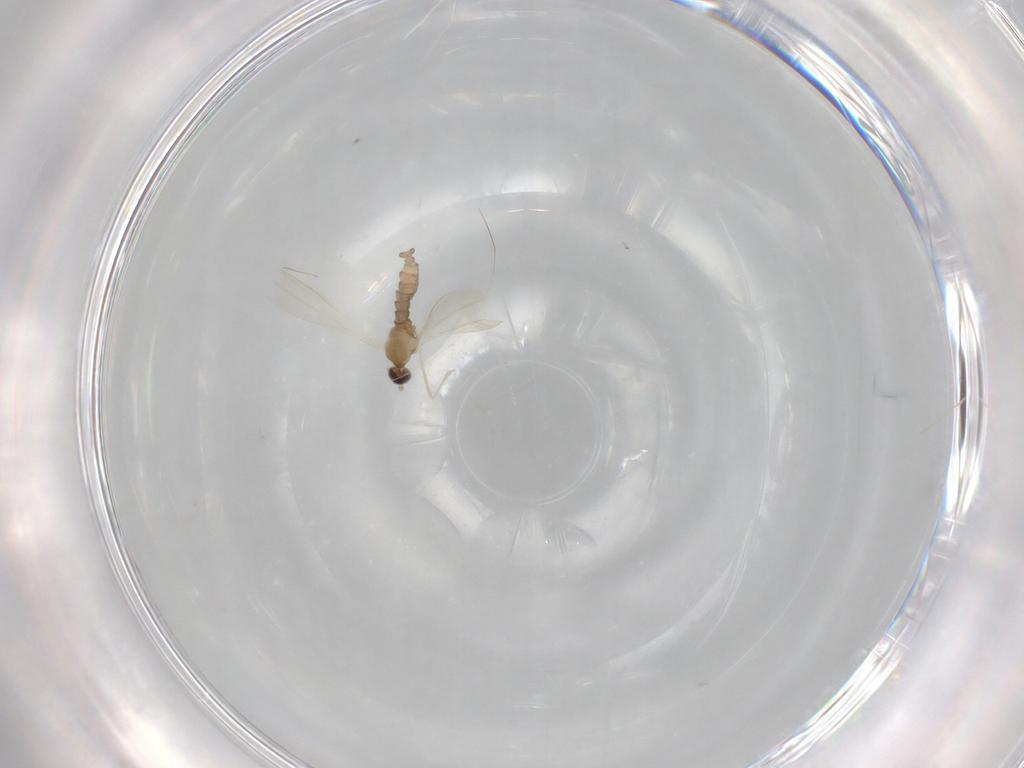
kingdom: Animalia
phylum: Arthropoda
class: Insecta
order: Diptera
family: Cecidomyiidae
